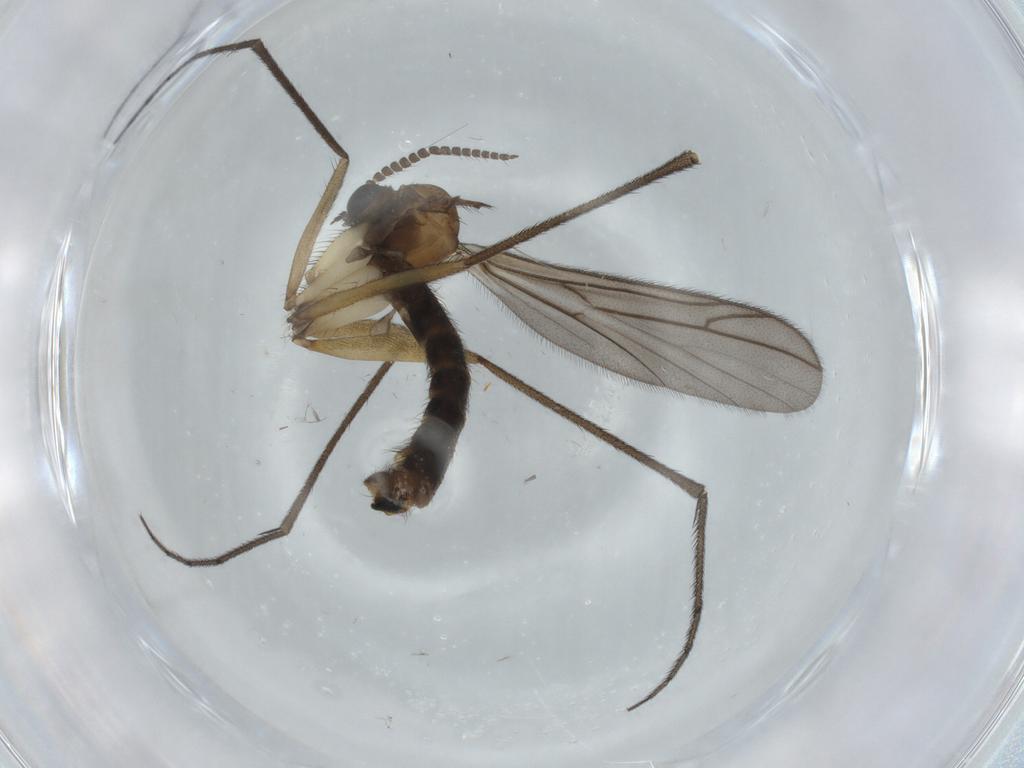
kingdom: Animalia
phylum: Arthropoda
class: Insecta
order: Diptera
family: Chironomidae
